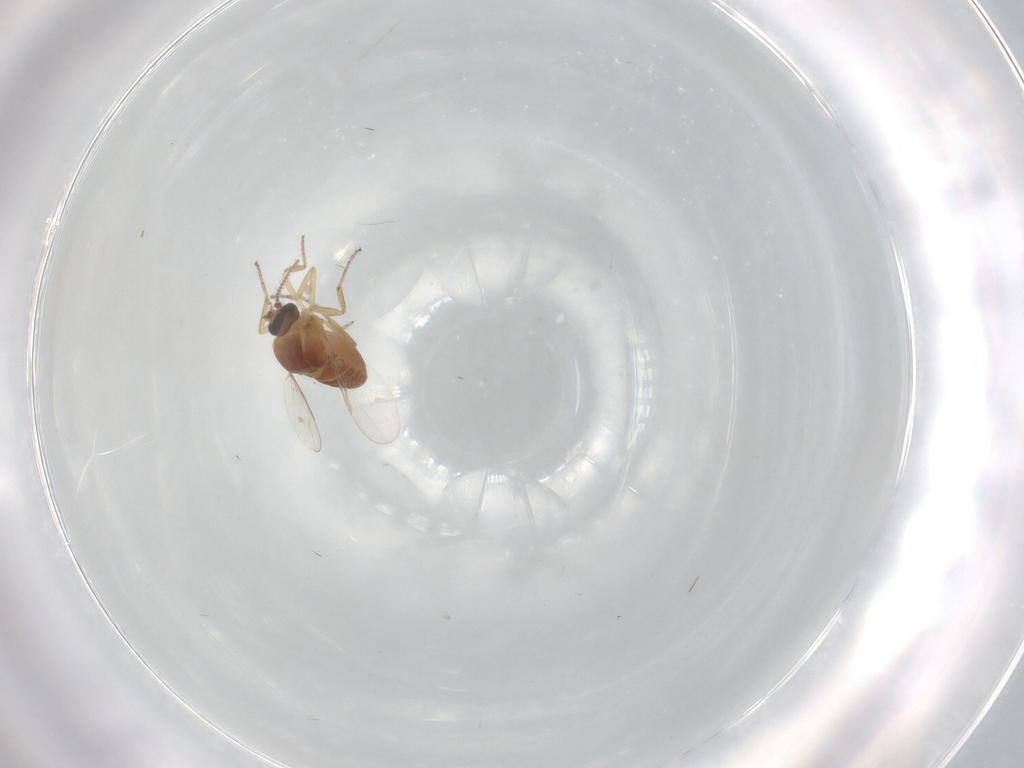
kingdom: Animalia
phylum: Arthropoda
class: Insecta
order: Diptera
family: Ceratopogonidae
